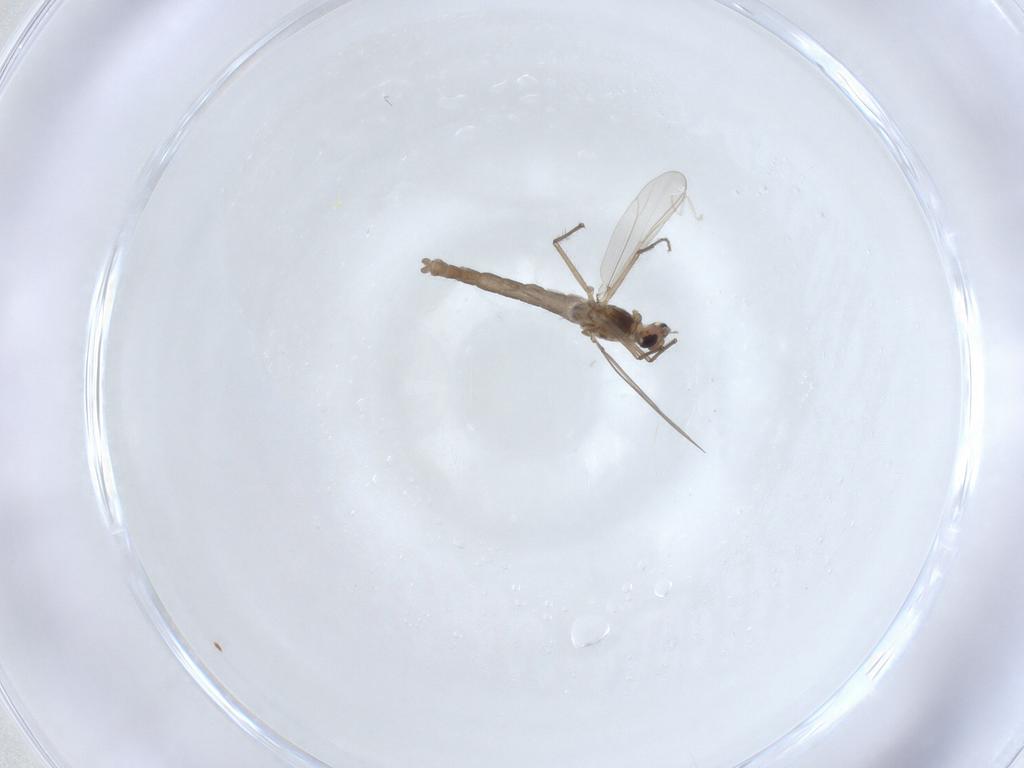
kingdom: Animalia
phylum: Arthropoda
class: Insecta
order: Diptera
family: Chironomidae
